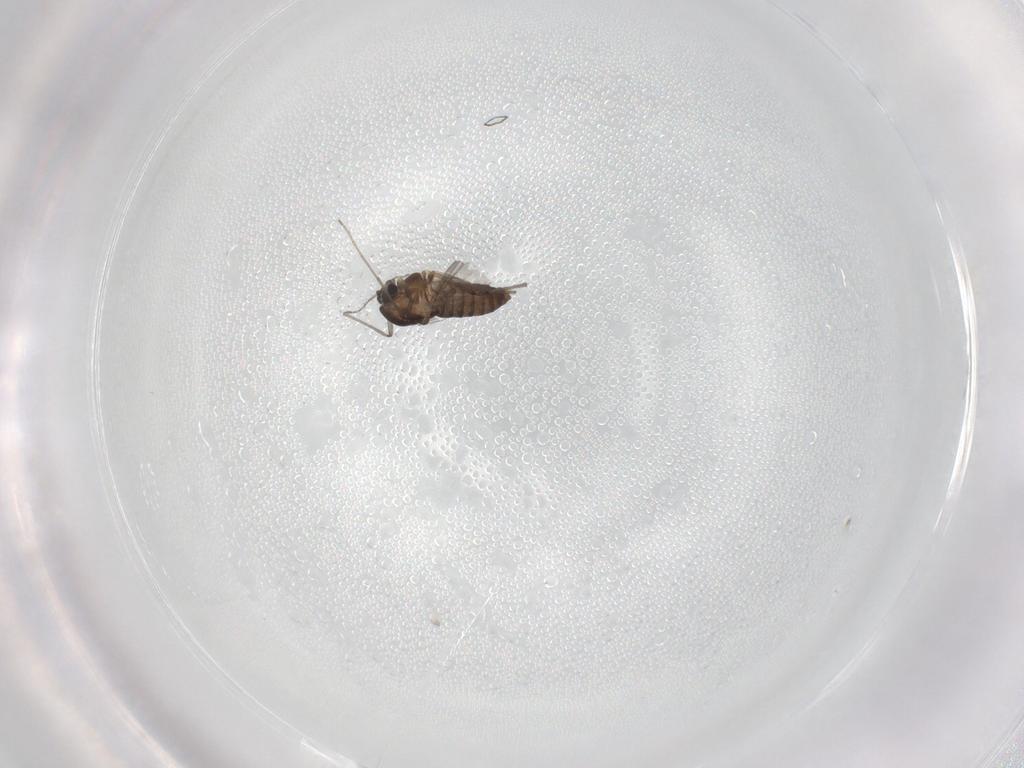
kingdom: Animalia
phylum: Arthropoda
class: Insecta
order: Diptera
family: Chironomidae
